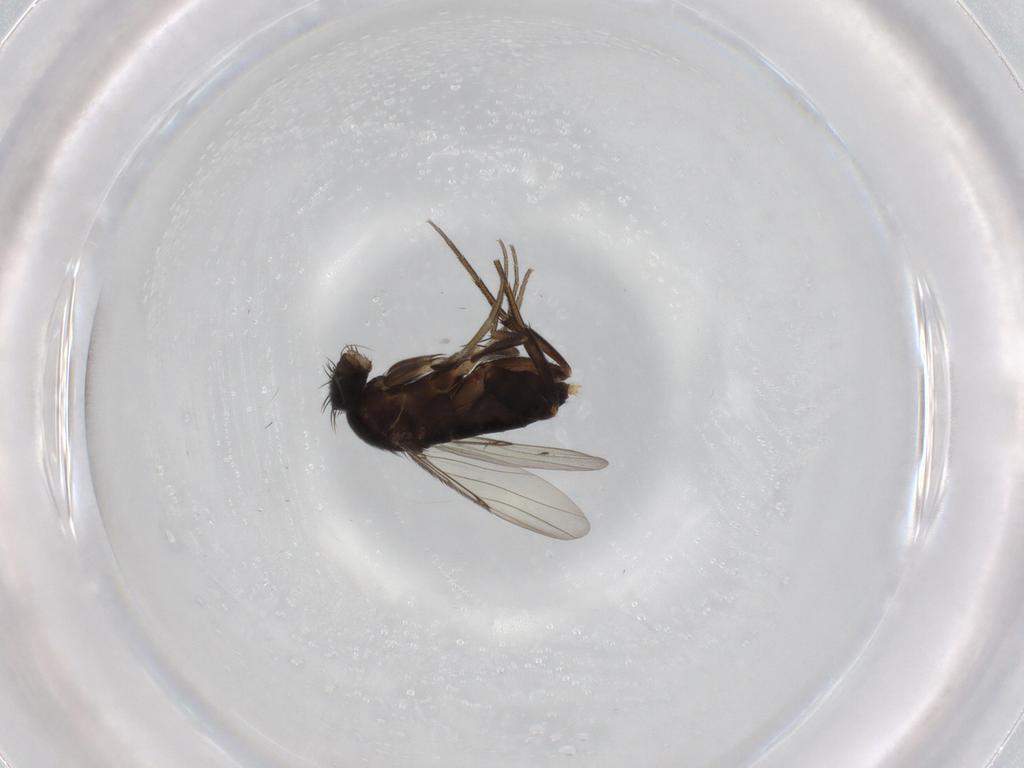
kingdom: Animalia
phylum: Arthropoda
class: Insecta
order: Diptera
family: Phoridae
